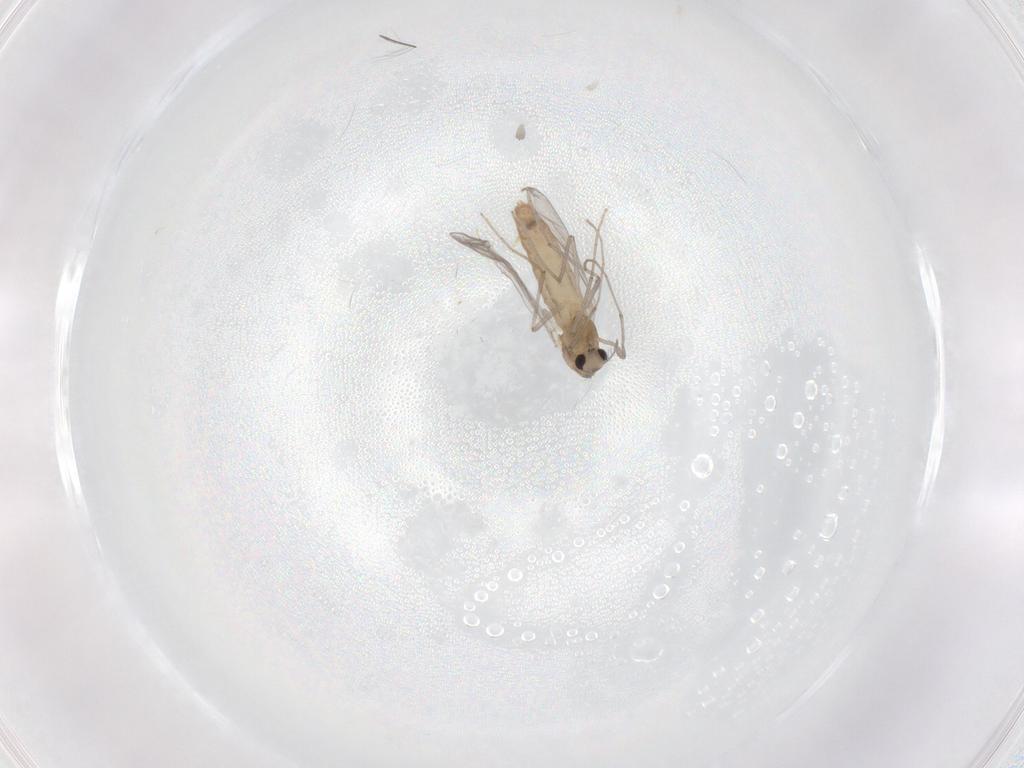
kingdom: Animalia
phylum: Arthropoda
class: Insecta
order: Diptera
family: Chironomidae
